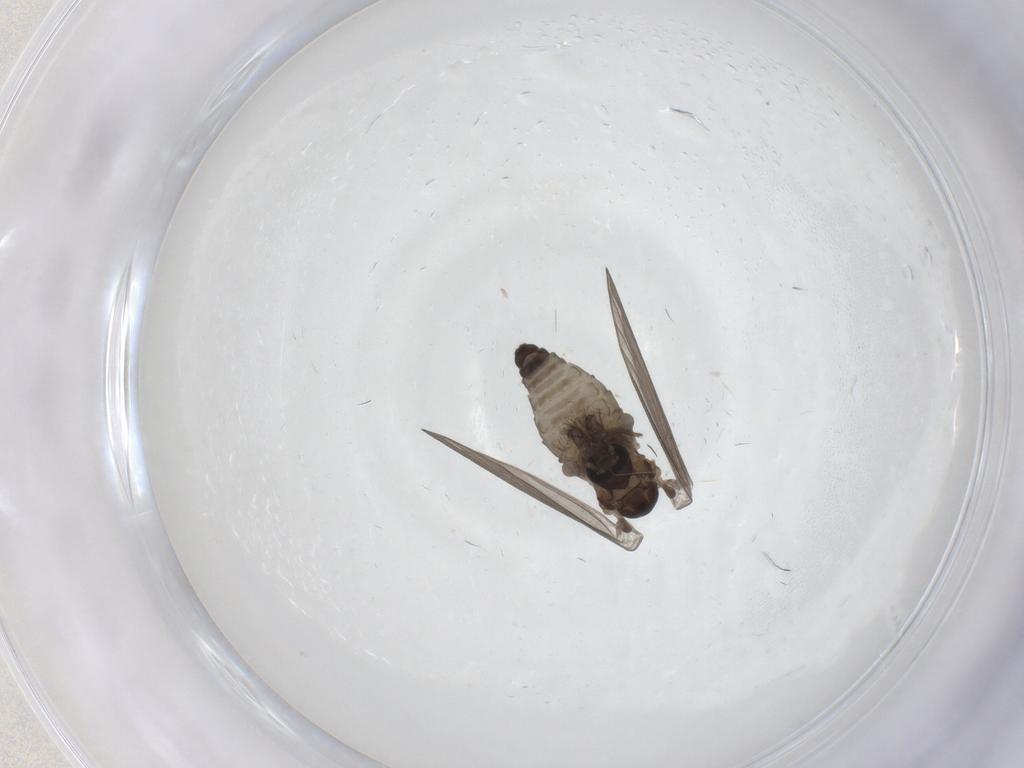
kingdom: Animalia
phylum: Arthropoda
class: Insecta
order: Diptera
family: Psychodidae
